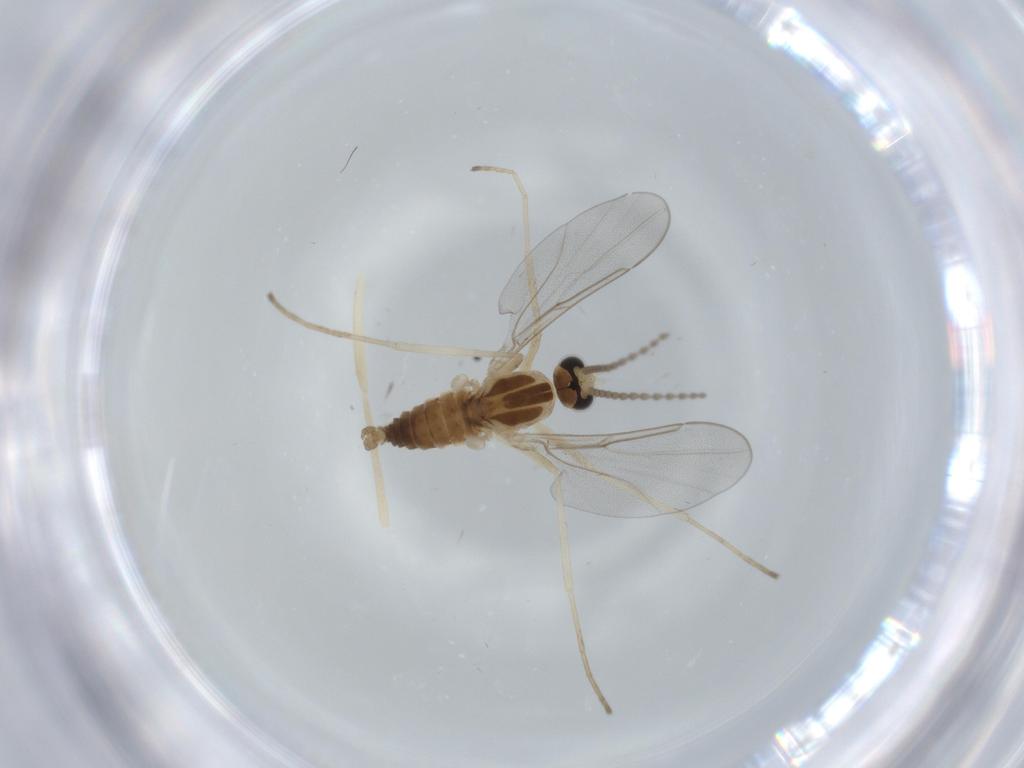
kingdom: Animalia
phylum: Arthropoda
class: Insecta
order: Diptera
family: Cecidomyiidae
